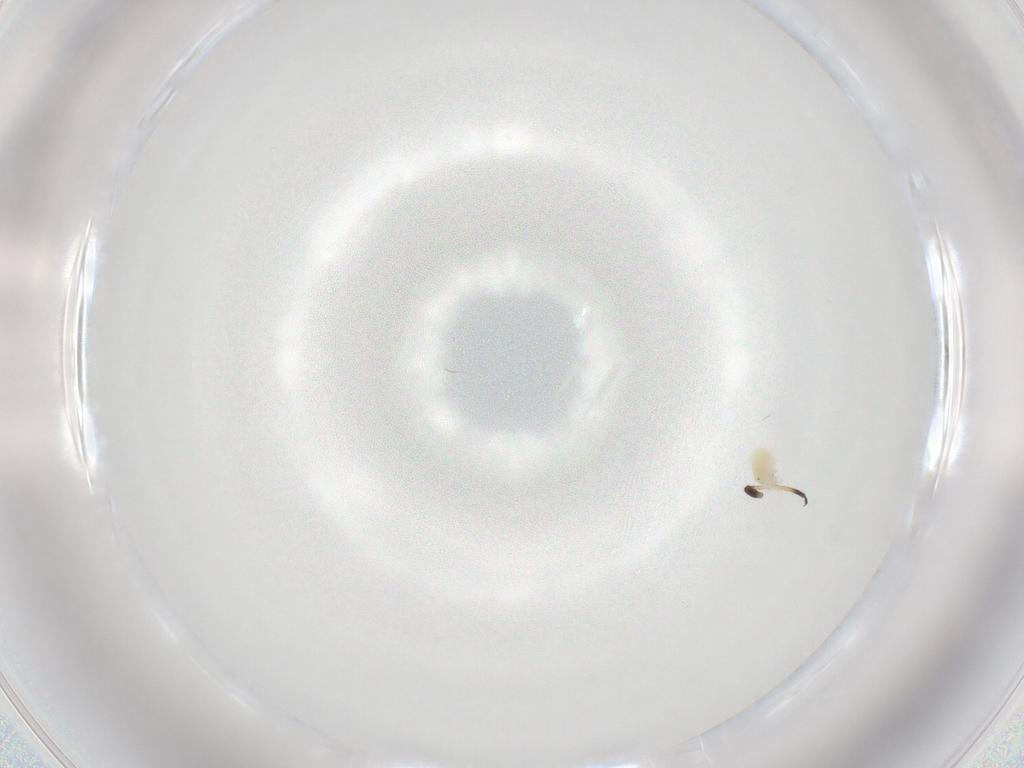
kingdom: Animalia
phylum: Arthropoda
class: Arachnida
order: Trombidiformes
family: Eupodidae
